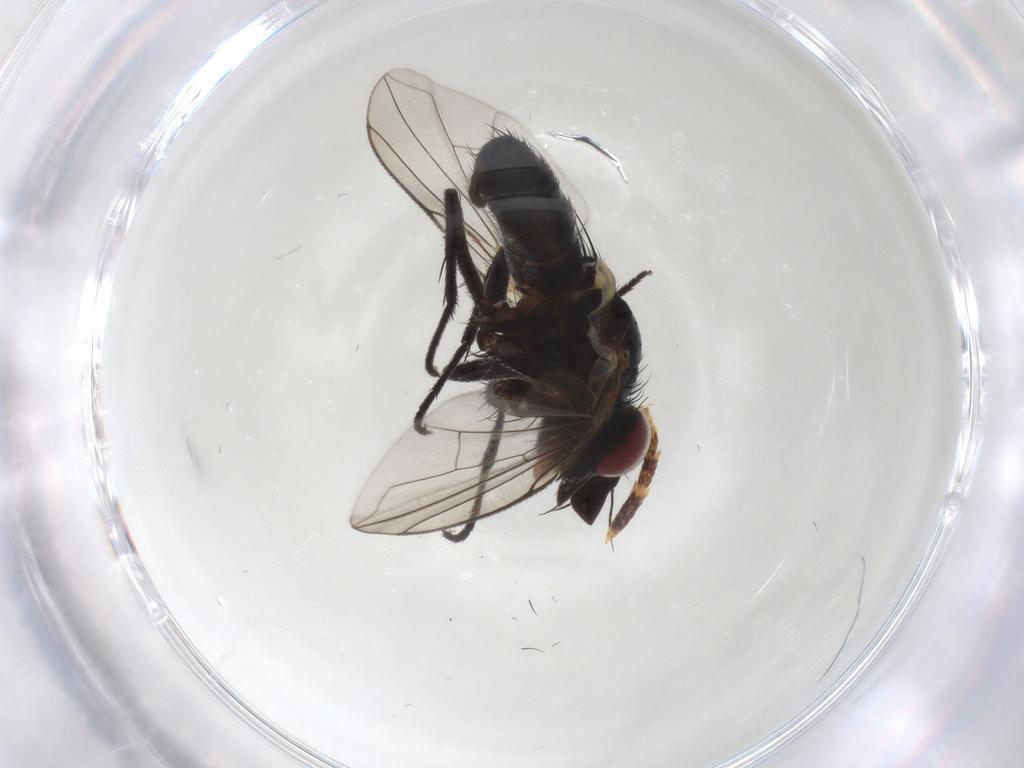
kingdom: Animalia
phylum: Arthropoda
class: Insecta
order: Diptera
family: Tachinidae
